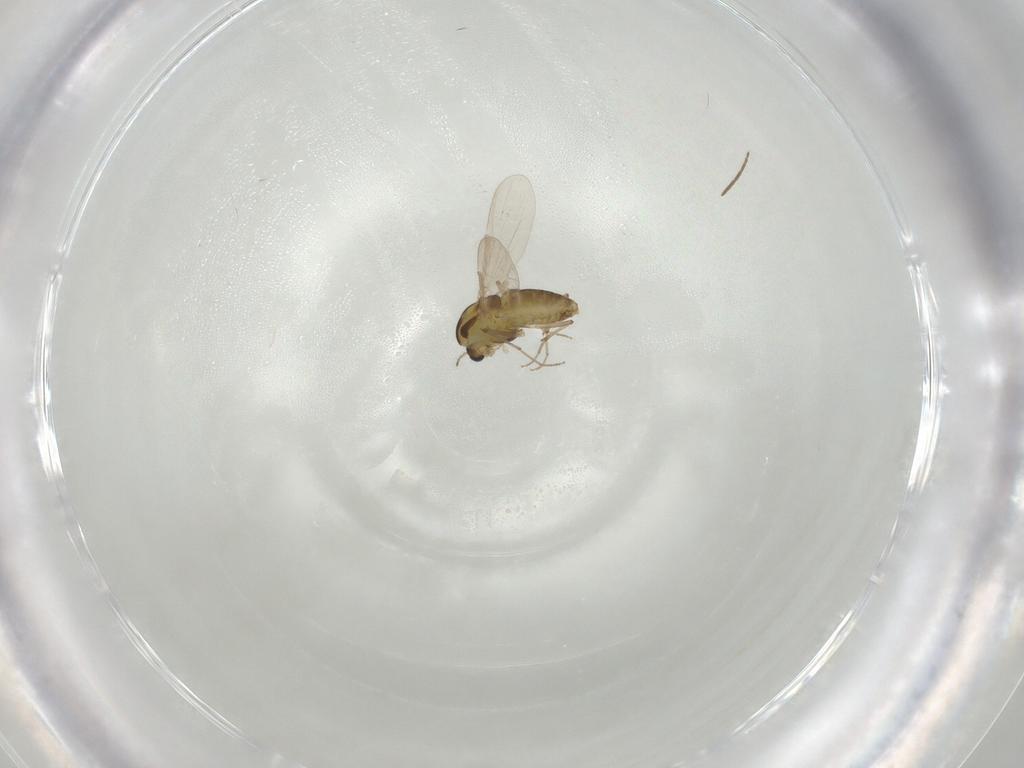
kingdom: Animalia
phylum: Arthropoda
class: Insecta
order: Diptera
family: Chironomidae
